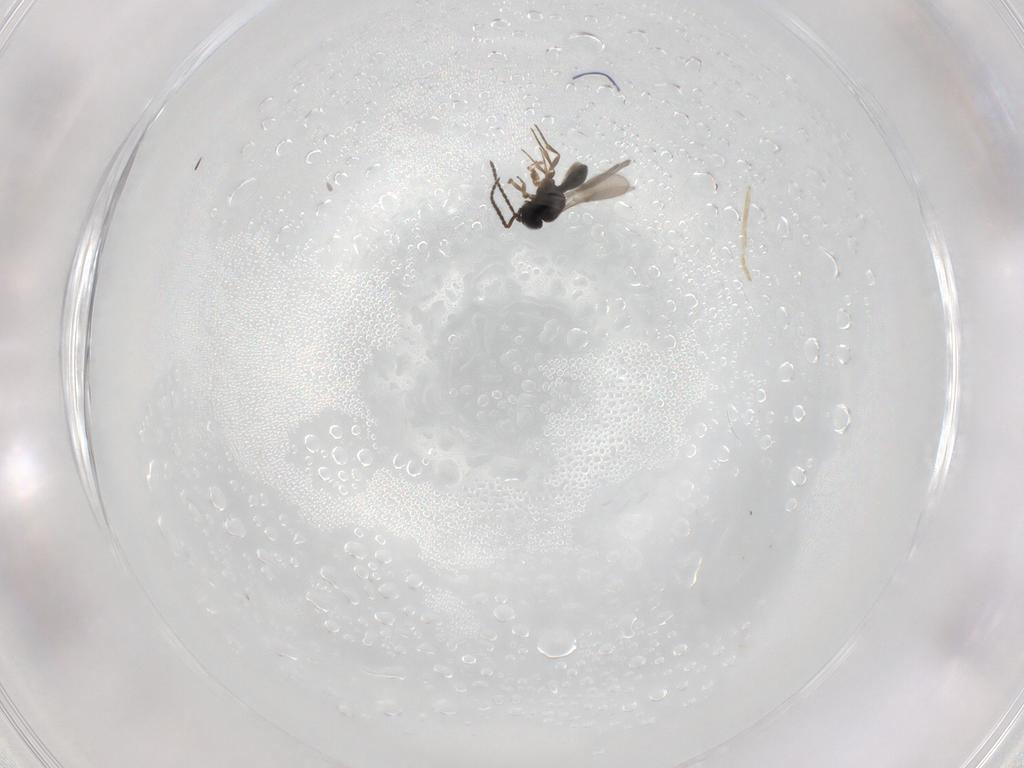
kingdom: Animalia
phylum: Arthropoda
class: Insecta
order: Hymenoptera
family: Scelionidae
